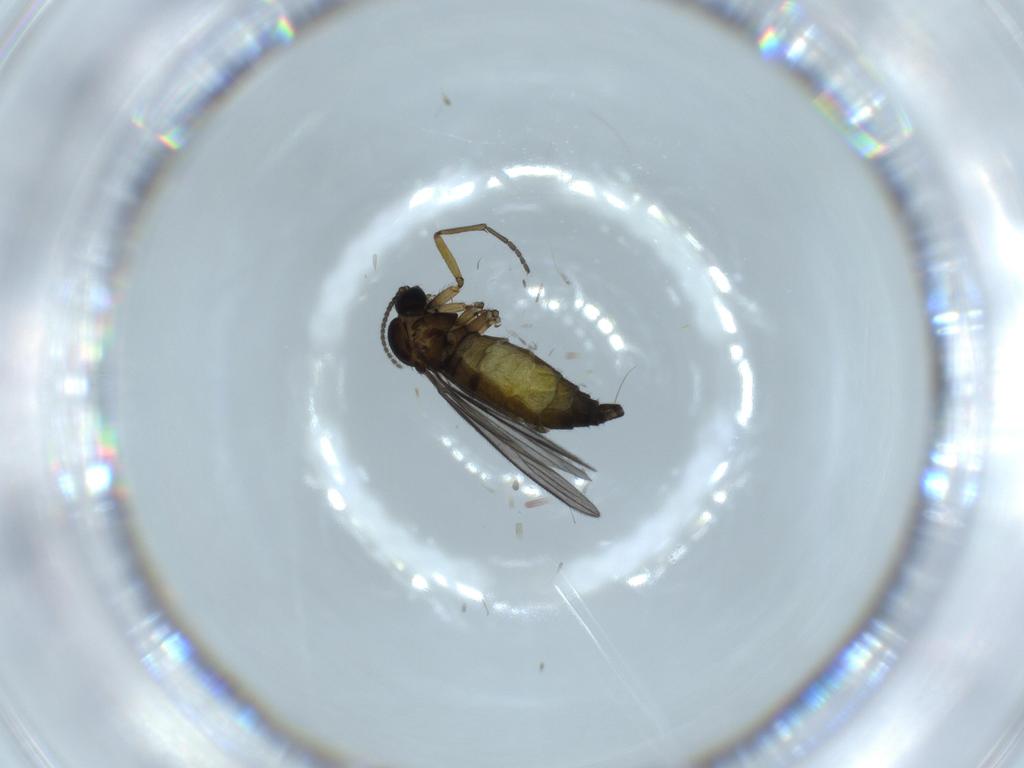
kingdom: Animalia
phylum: Arthropoda
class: Insecta
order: Diptera
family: Sciaridae
